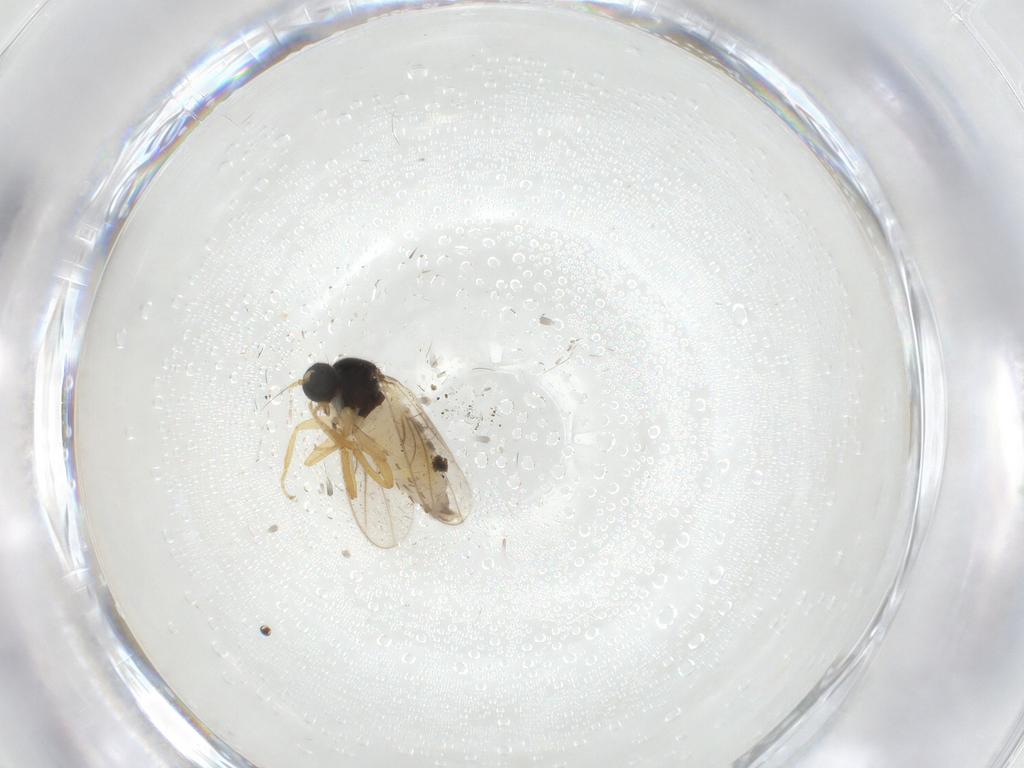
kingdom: Animalia
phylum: Arthropoda
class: Insecta
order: Diptera
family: Hybotidae
